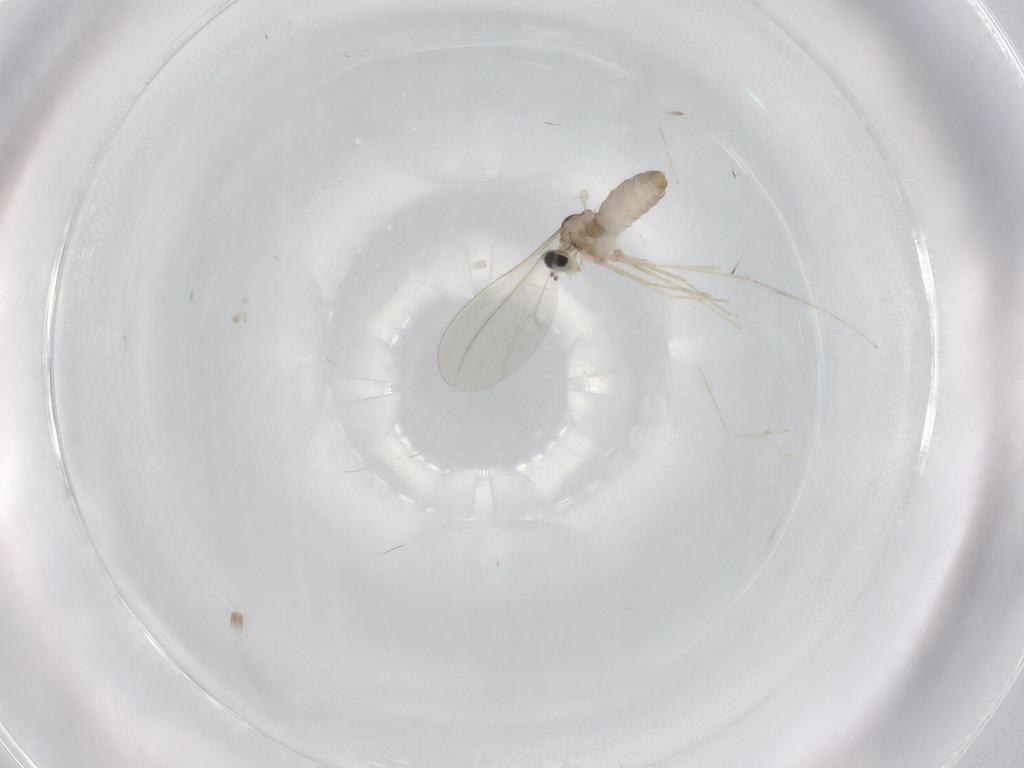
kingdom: Animalia
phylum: Arthropoda
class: Insecta
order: Diptera
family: Cecidomyiidae
